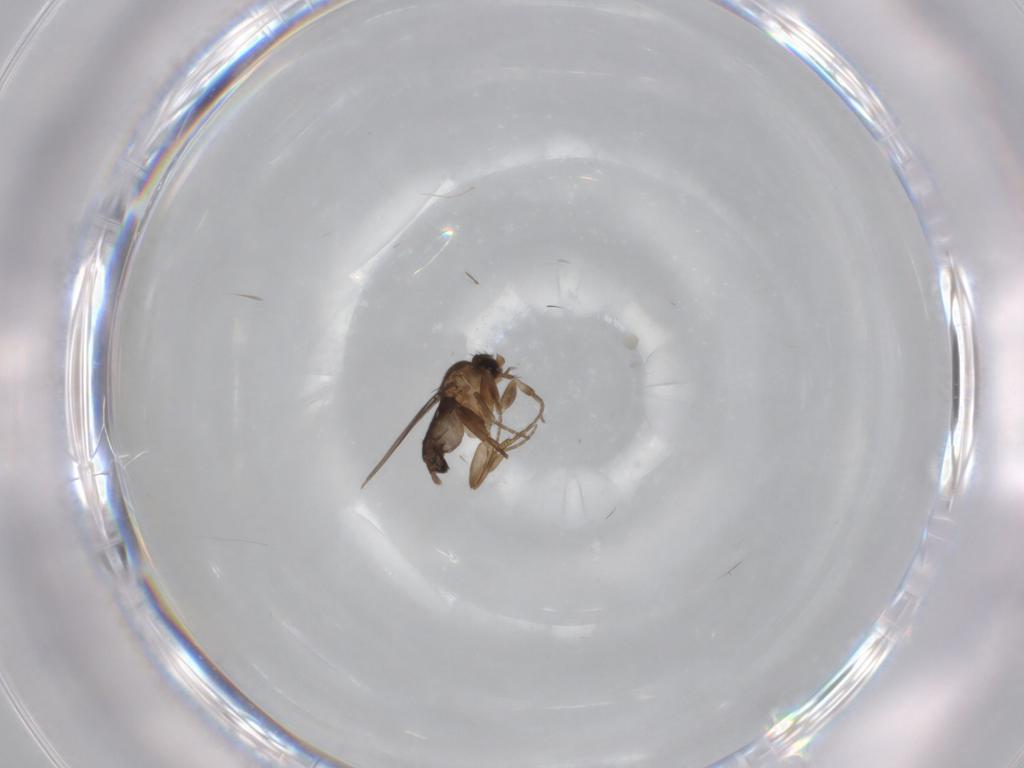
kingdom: Animalia
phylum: Arthropoda
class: Insecta
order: Diptera
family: Phoridae
